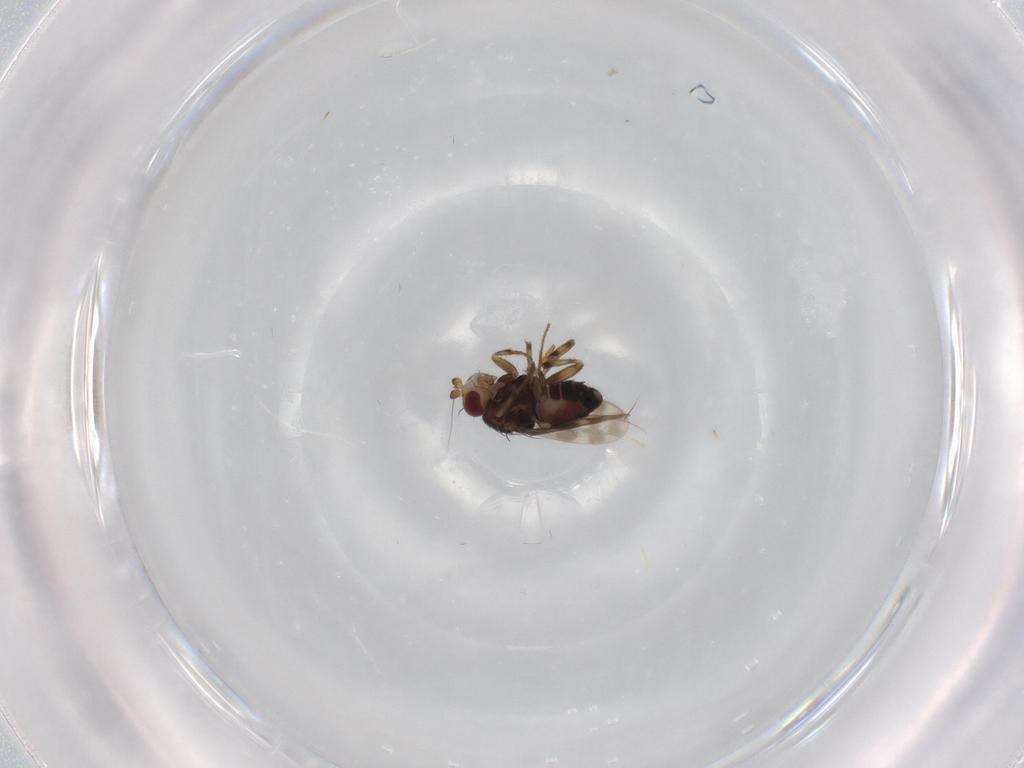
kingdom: Animalia
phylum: Arthropoda
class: Insecta
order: Diptera
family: Sphaeroceridae
